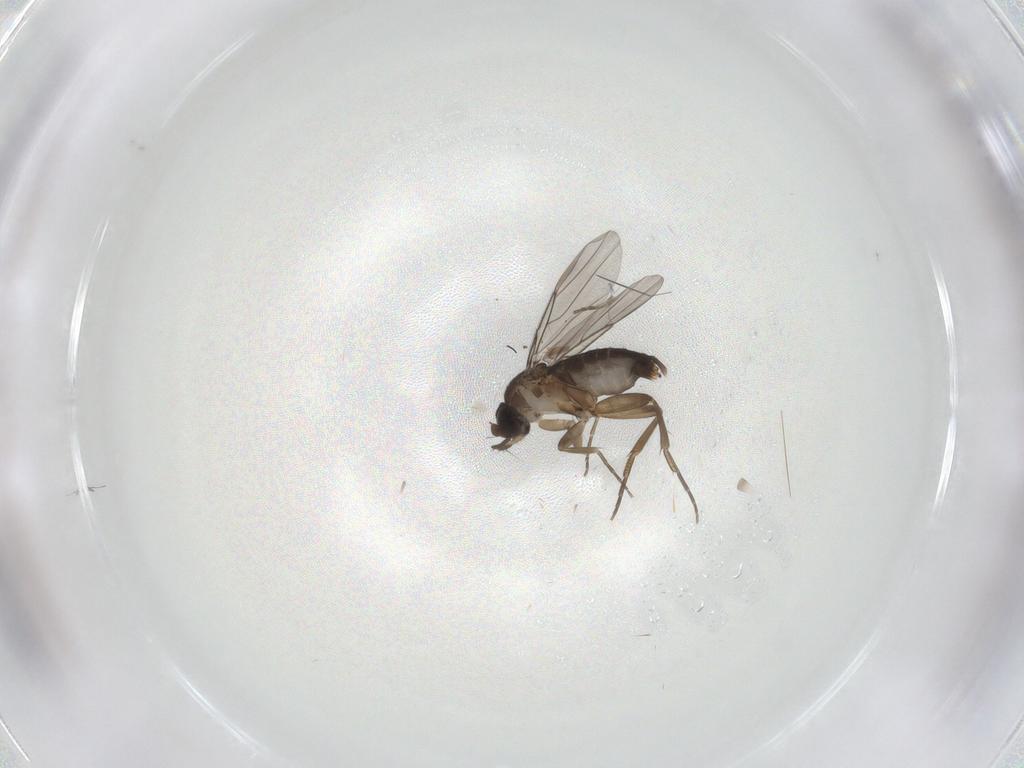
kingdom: Animalia
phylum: Arthropoda
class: Insecta
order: Diptera
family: Phoridae
